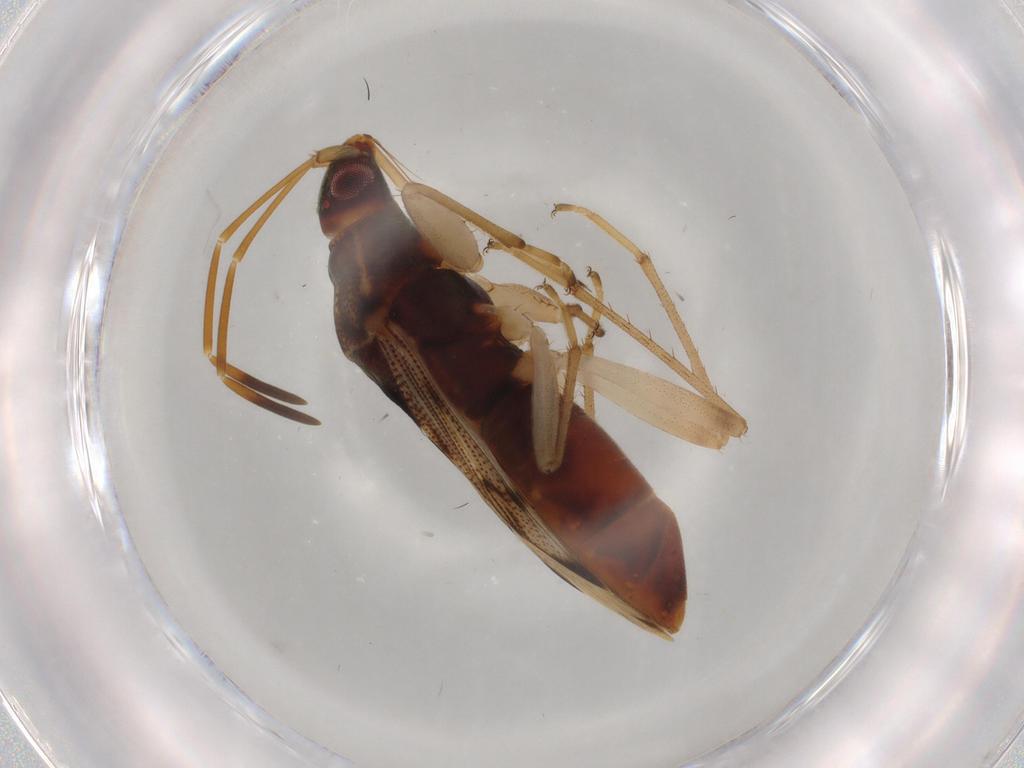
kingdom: Animalia
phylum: Arthropoda
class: Insecta
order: Hemiptera
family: Rhyparochromidae
